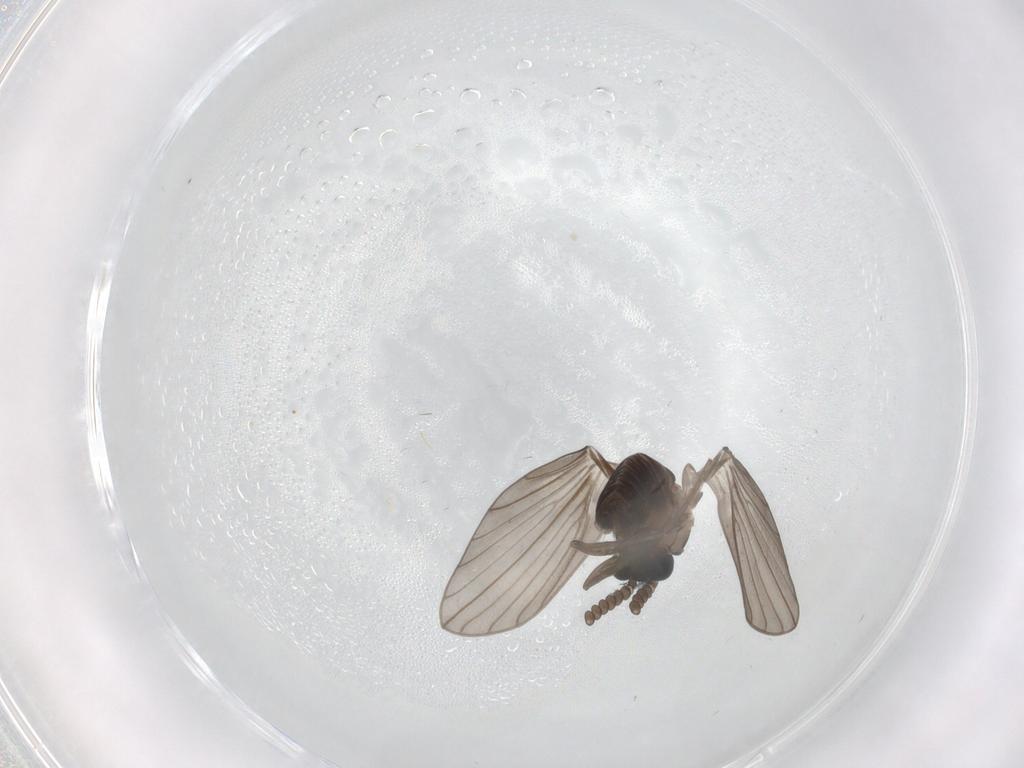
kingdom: Animalia
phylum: Arthropoda
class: Insecta
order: Diptera
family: Psychodidae
